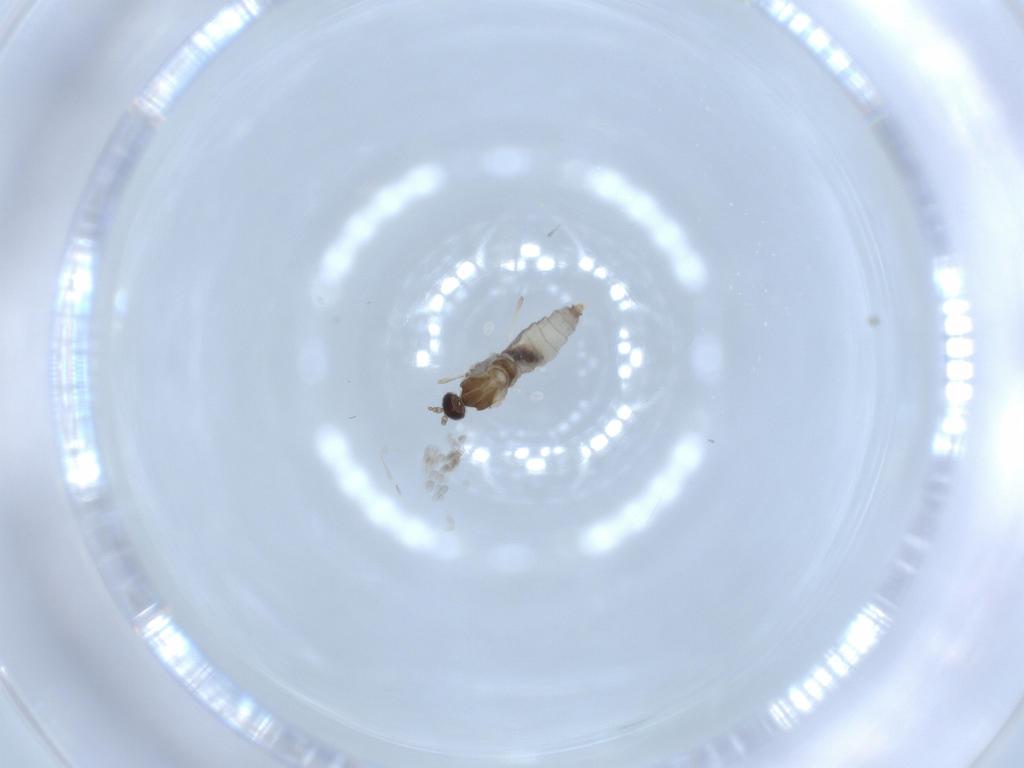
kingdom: Animalia
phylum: Arthropoda
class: Insecta
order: Diptera
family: Cecidomyiidae
